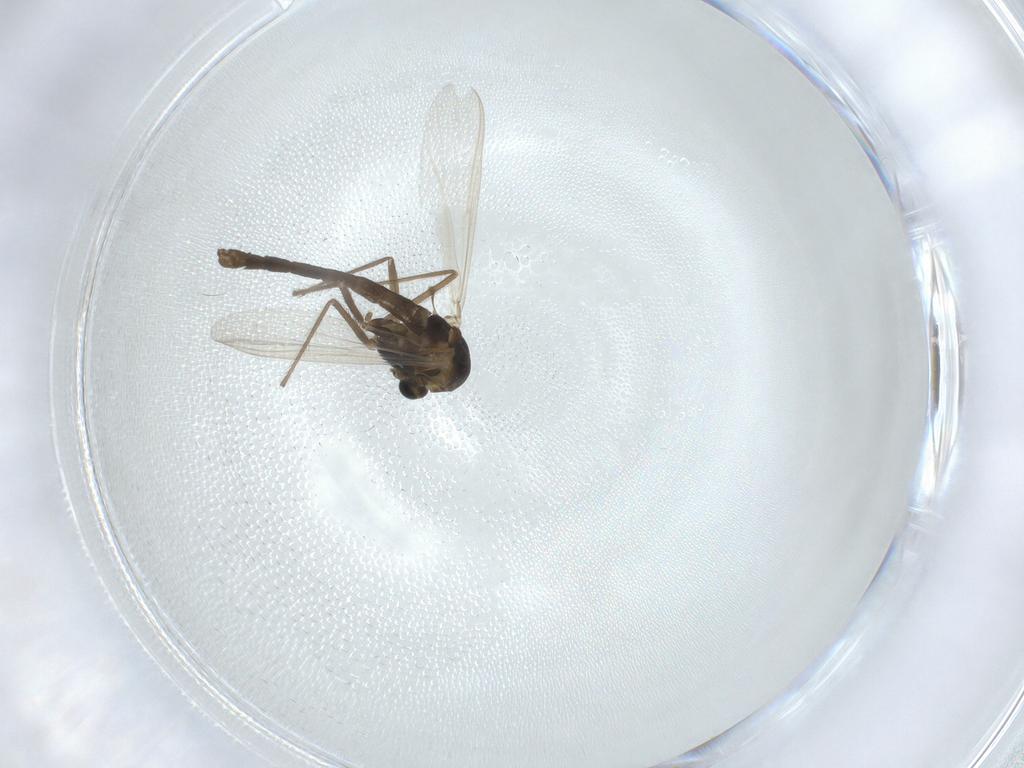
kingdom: Animalia
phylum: Arthropoda
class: Insecta
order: Diptera
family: Chironomidae
